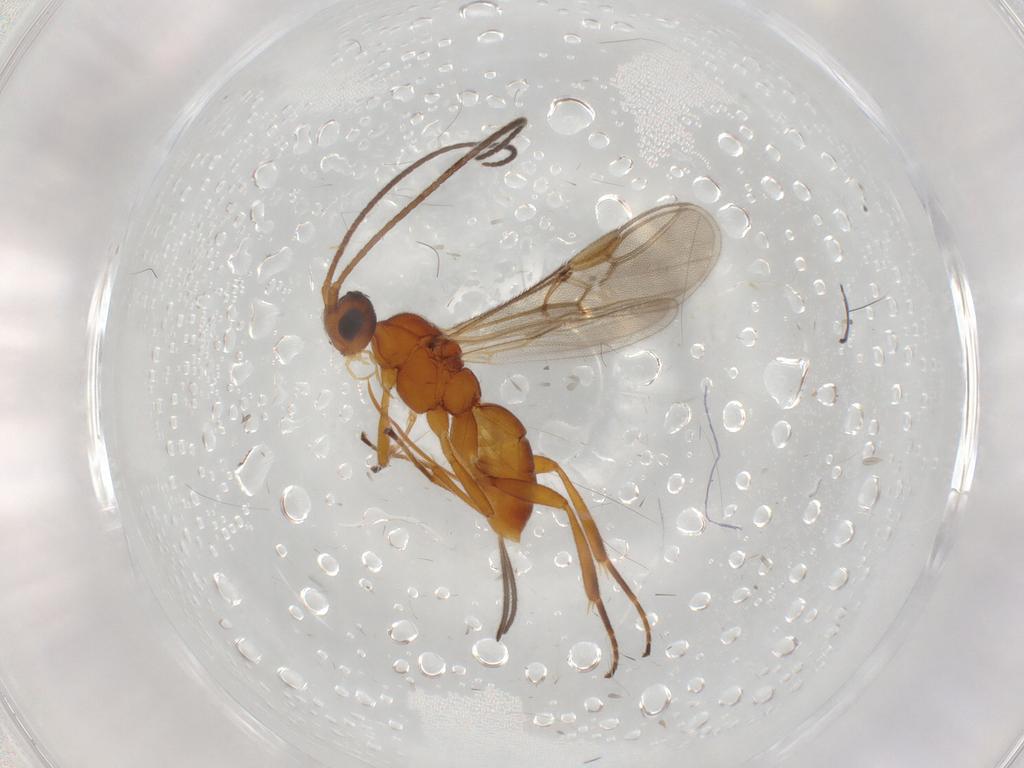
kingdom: Animalia
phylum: Arthropoda
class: Insecta
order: Hymenoptera
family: Braconidae
